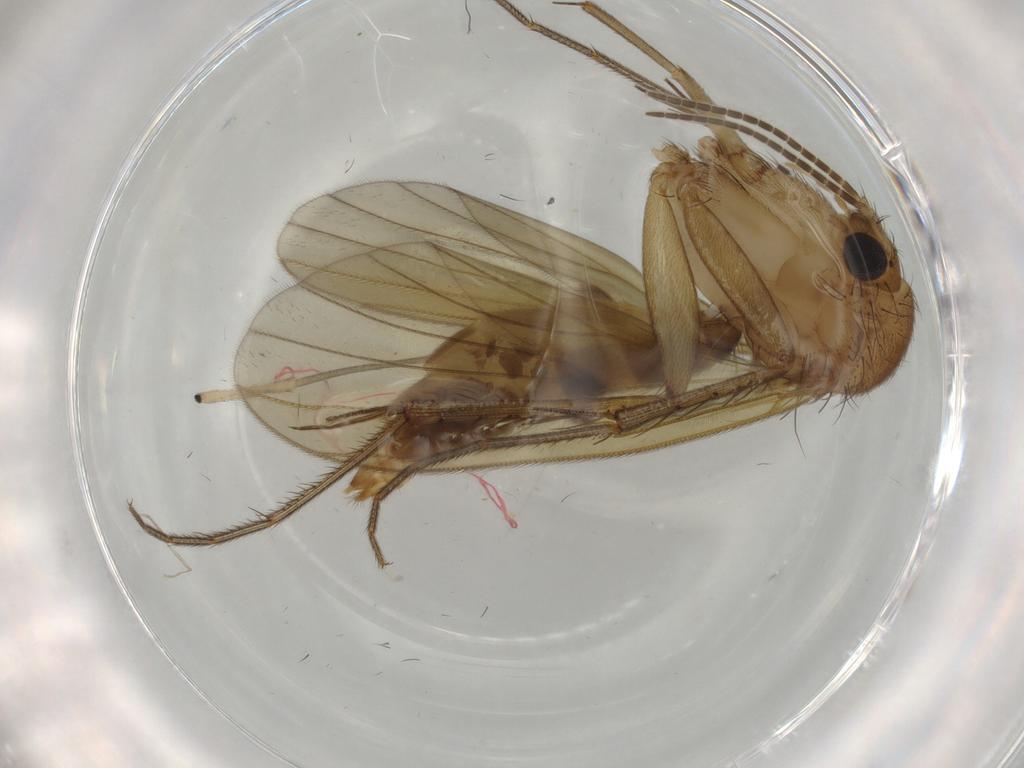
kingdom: Animalia
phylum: Arthropoda
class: Insecta
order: Diptera
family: Mycetophilidae
